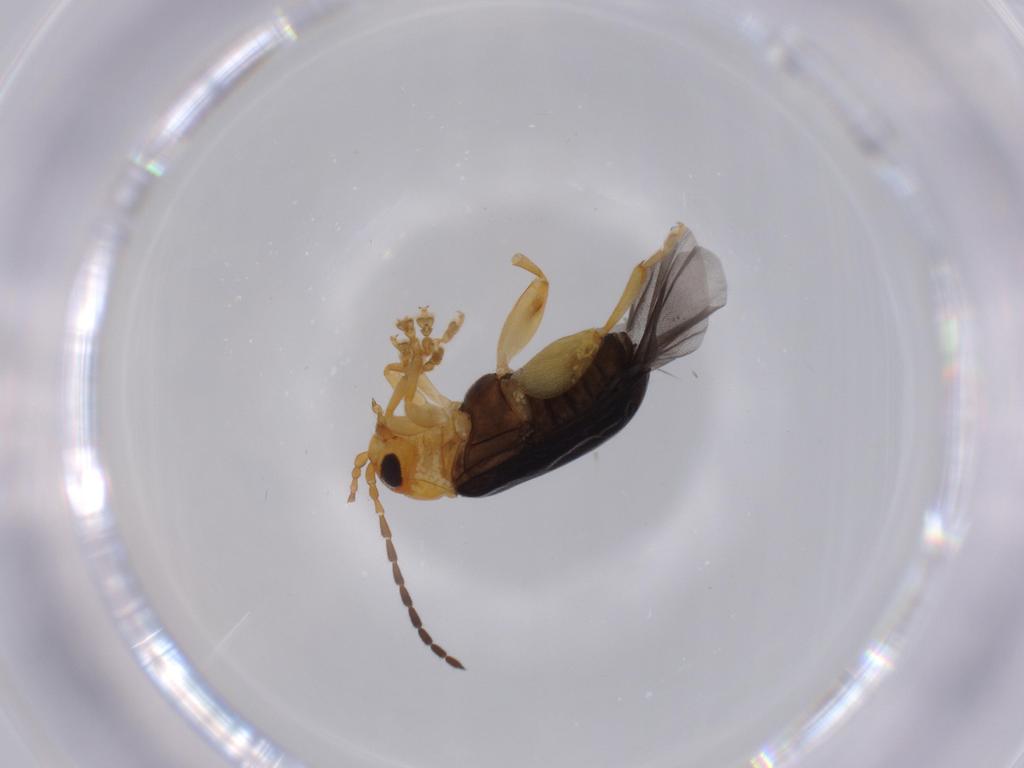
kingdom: Animalia
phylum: Arthropoda
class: Insecta
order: Coleoptera
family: Chrysomelidae
